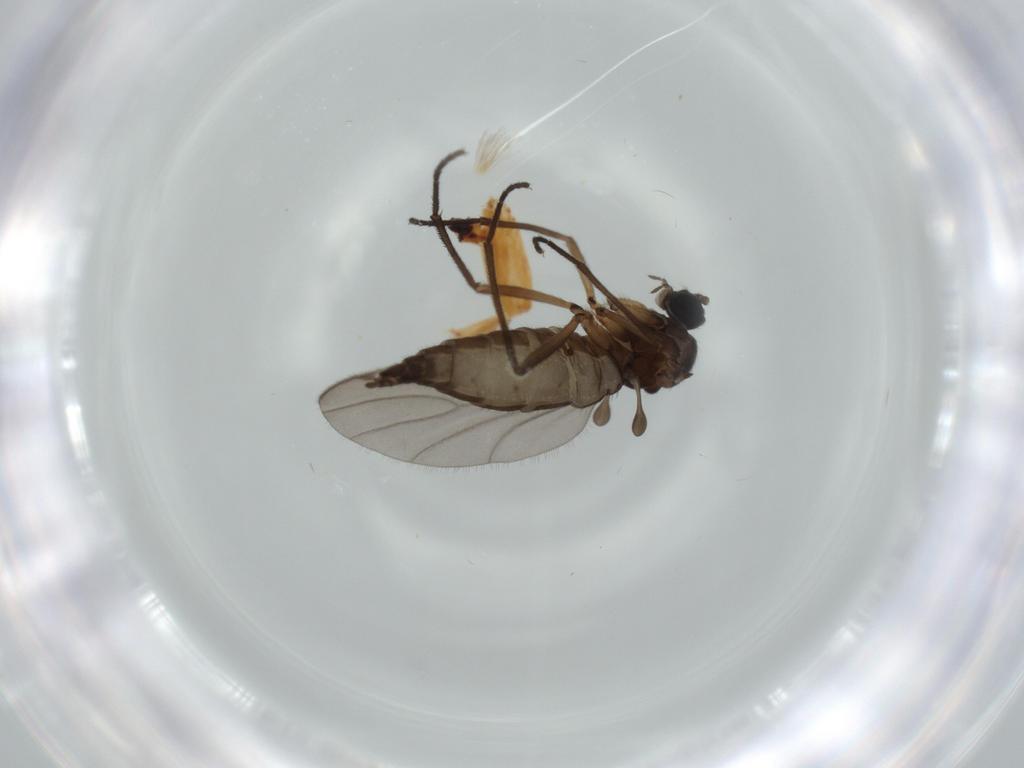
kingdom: Animalia
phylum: Arthropoda
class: Insecta
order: Diptera
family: Sciaridae
